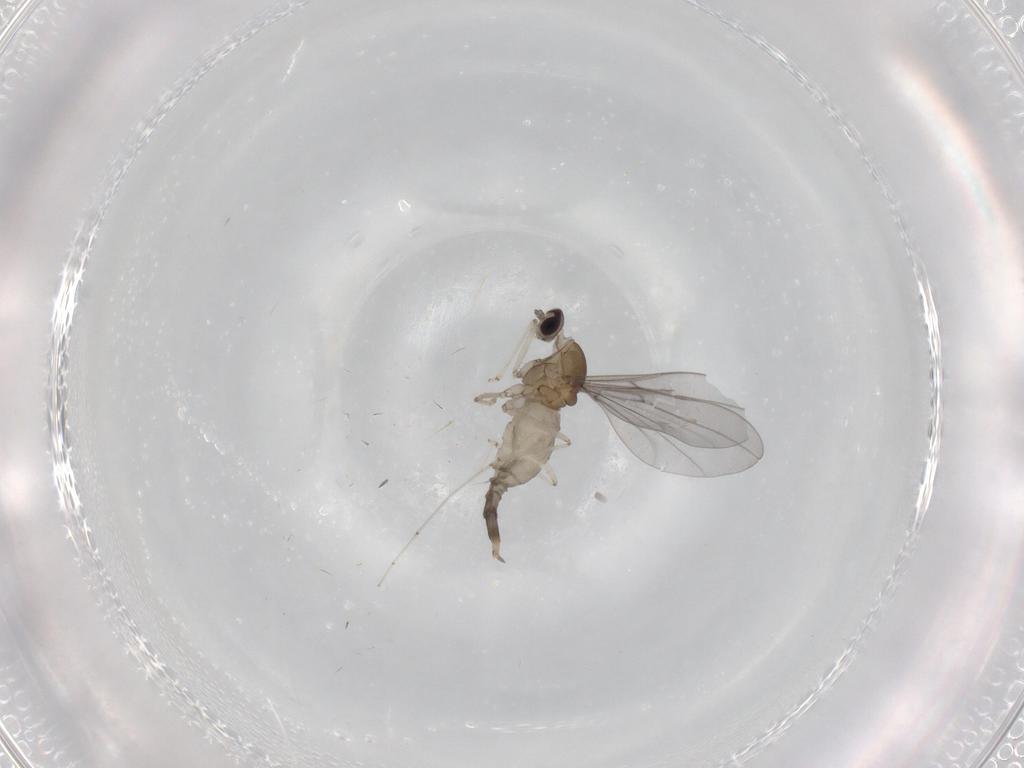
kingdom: Animalia
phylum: Arthropoda
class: Insecta
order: Diptera
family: Cecidomyiidae
